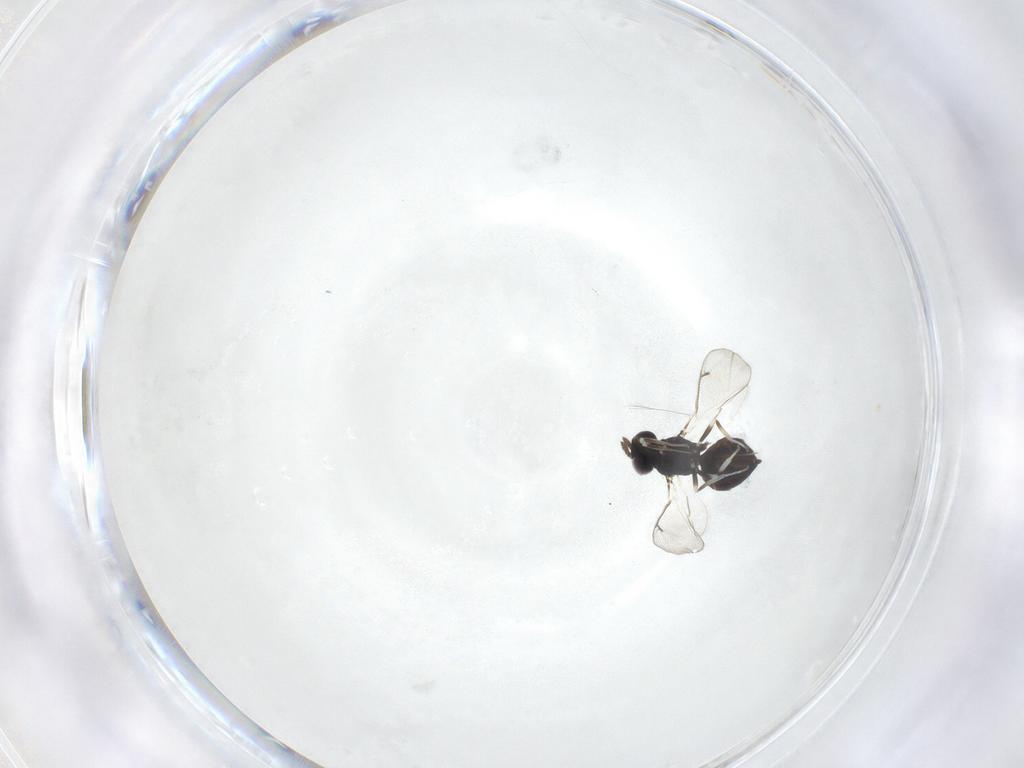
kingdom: Animalia
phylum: Arthropoda
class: Insecta
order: Hymenoptera
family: Eulophidae
